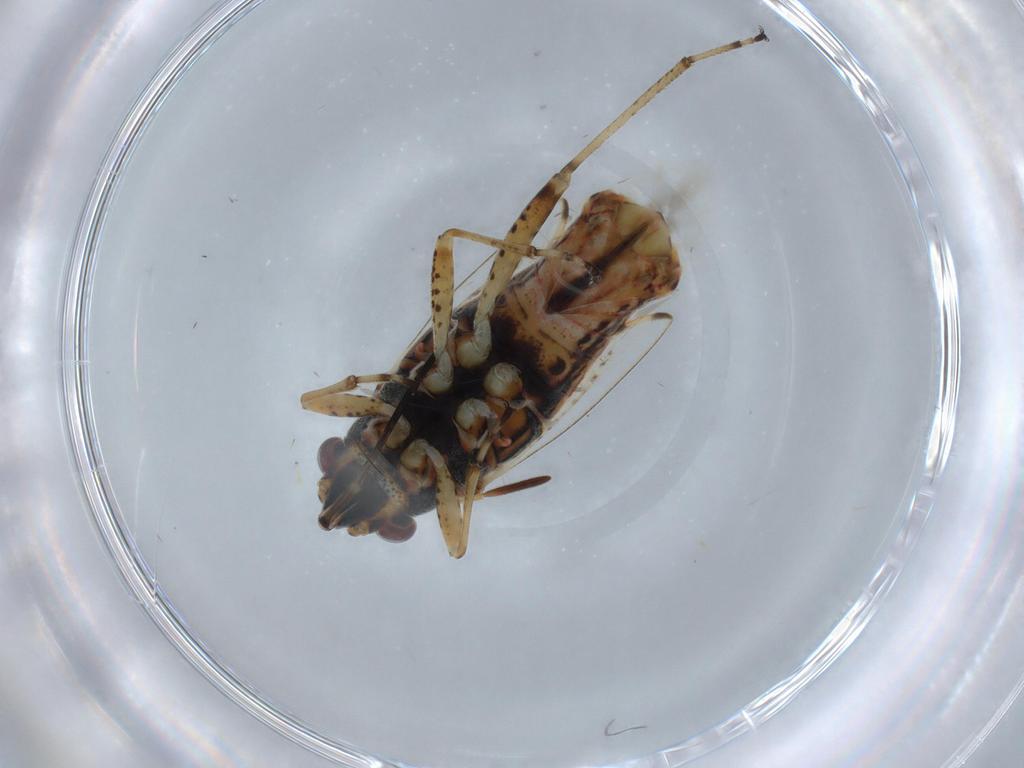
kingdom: Animalia
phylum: Arthropoda
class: Insecta
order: Hemiptera
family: Lygaeidae
